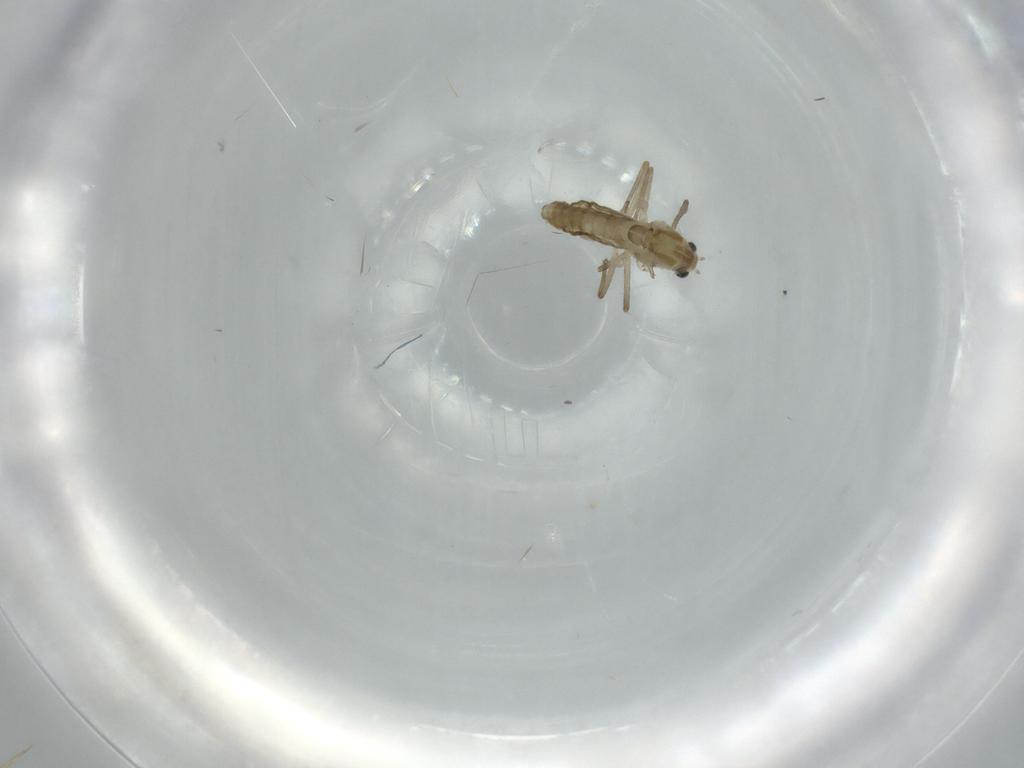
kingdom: Animalia
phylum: Arthropoda
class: Insecta
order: Diptera
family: Chironomidae
